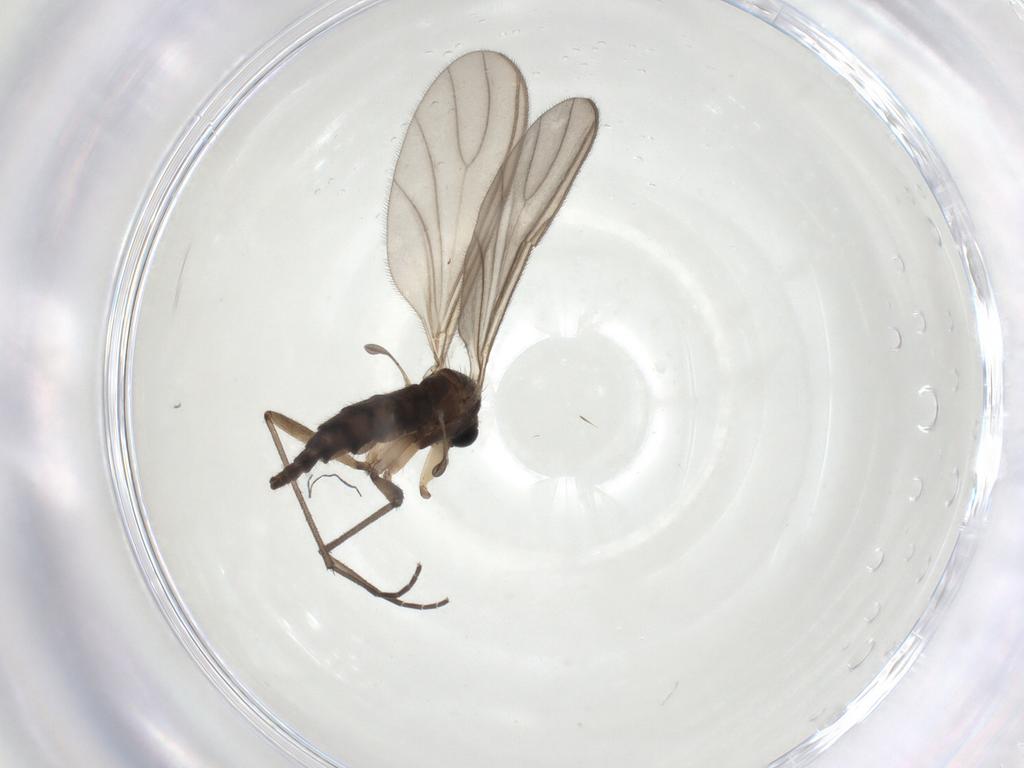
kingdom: Animalia
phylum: Arthropoda
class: Insecta
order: Diptera
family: Sciaridae
